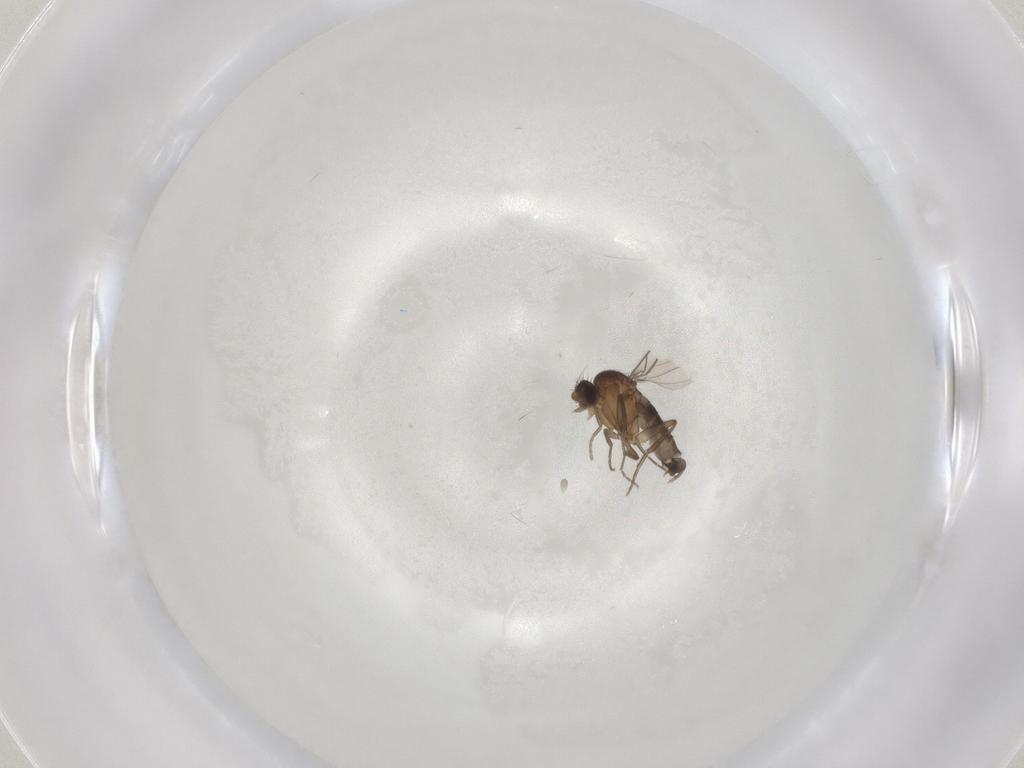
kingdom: Animalia
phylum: Arthropoda
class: Insecta
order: Diptera
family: Phoridae
